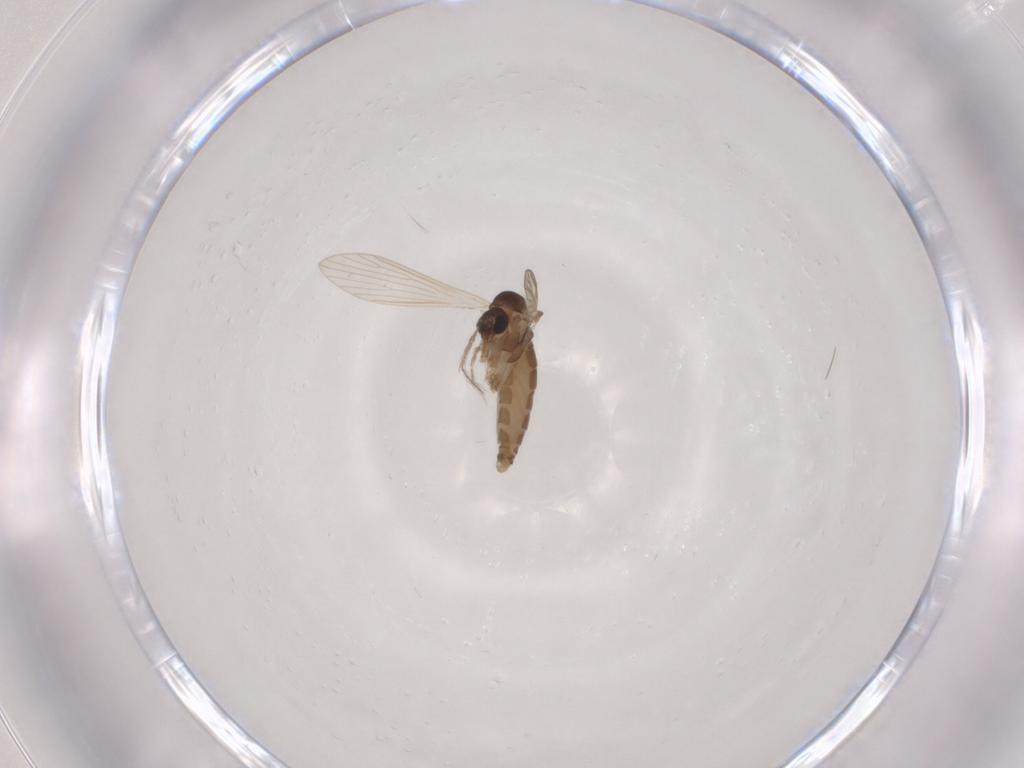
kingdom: Animalia
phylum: Arthropoda
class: Insecta
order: Diptera
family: Psychodidae
